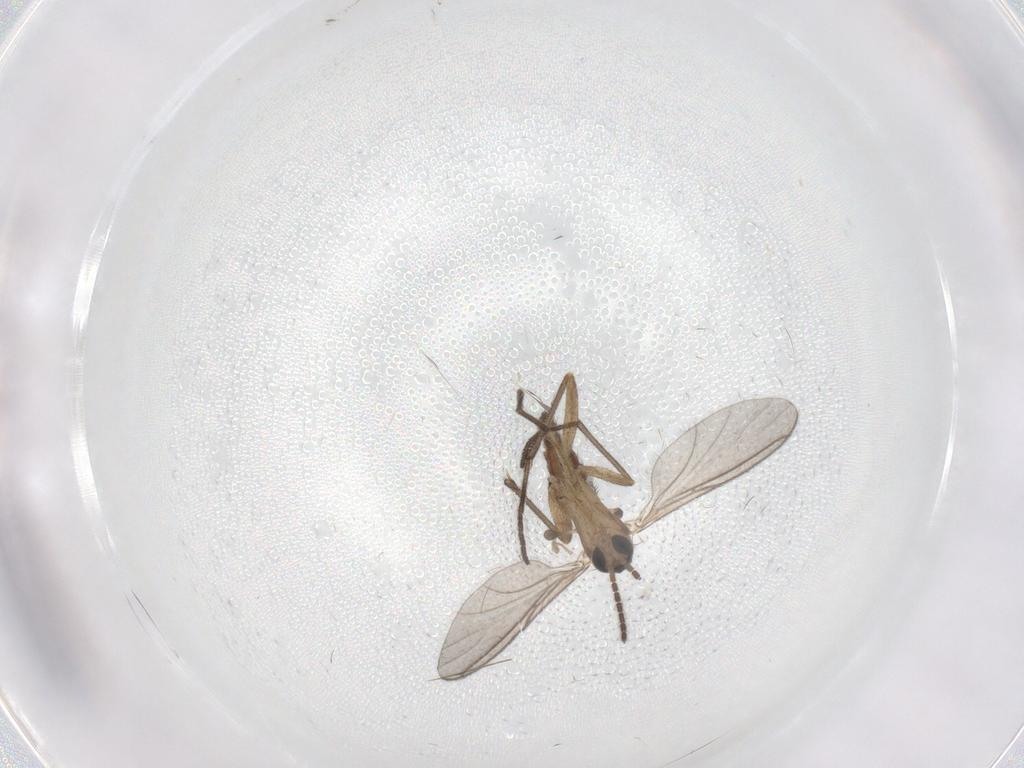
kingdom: Animalia
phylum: Arthropoda
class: Insecta
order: Diptera
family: Sciaridae
